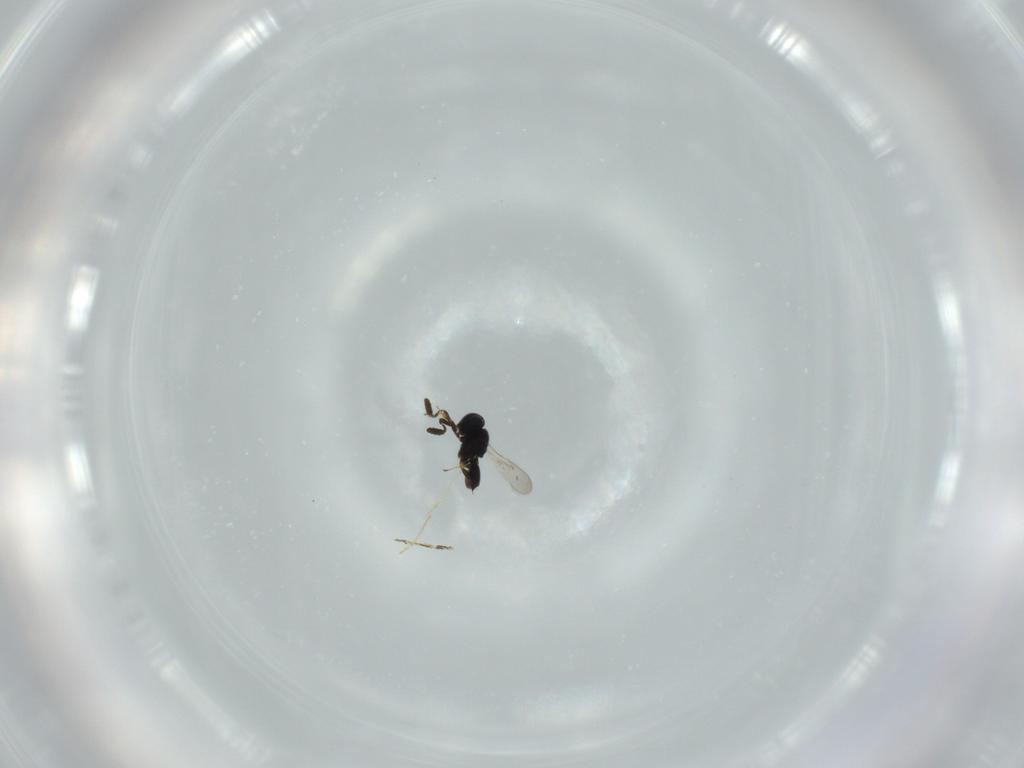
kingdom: Animalia
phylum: Arthropoda
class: Insecta
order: Hymenoptera
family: Scelionidae
